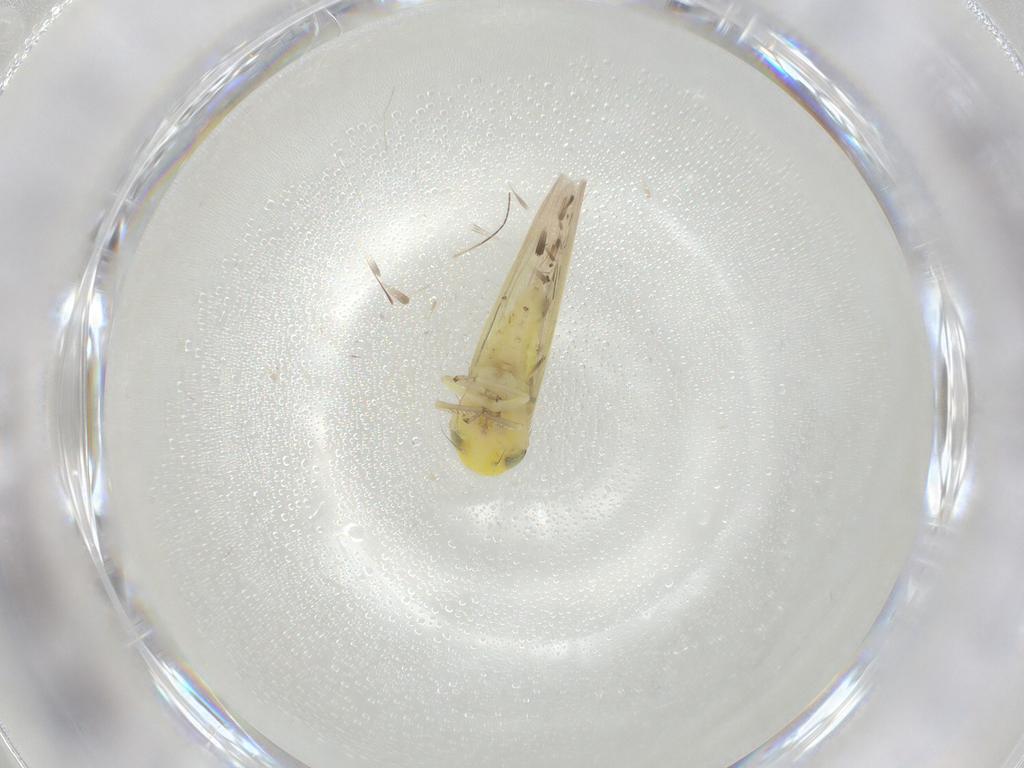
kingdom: Animalia
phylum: Arthropoda
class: Insecta
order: Hemiptera
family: Cicadellidae
